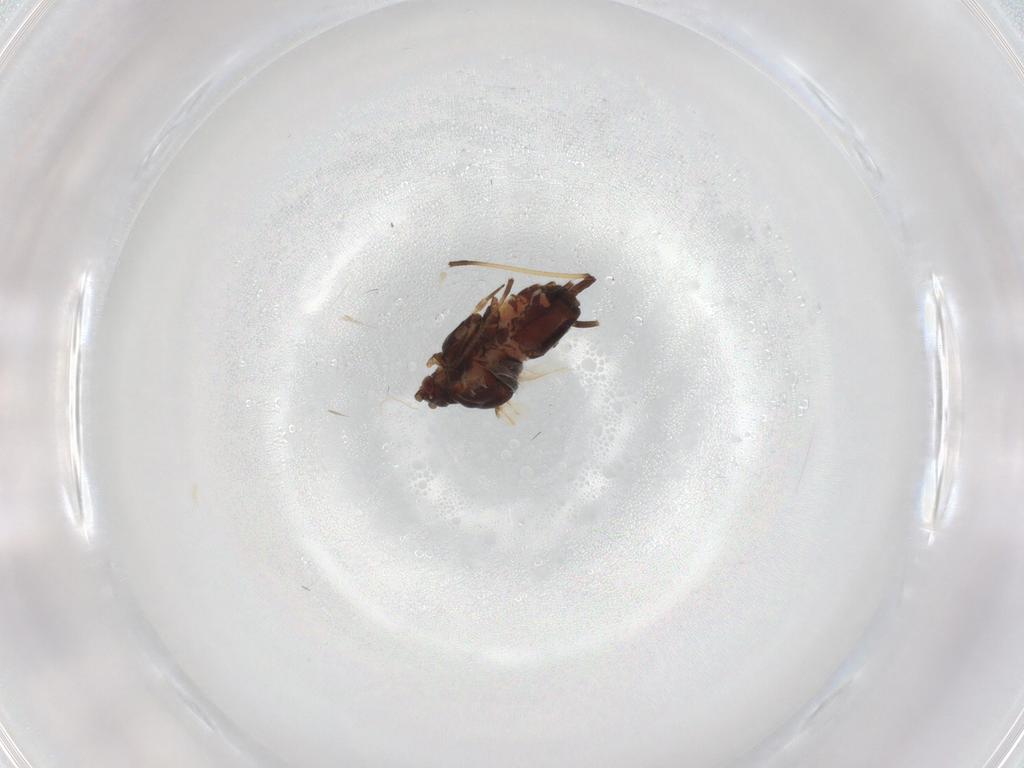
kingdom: Animalia
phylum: Arthropoda
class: Insecta
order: Hemiptera
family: Aphididae
